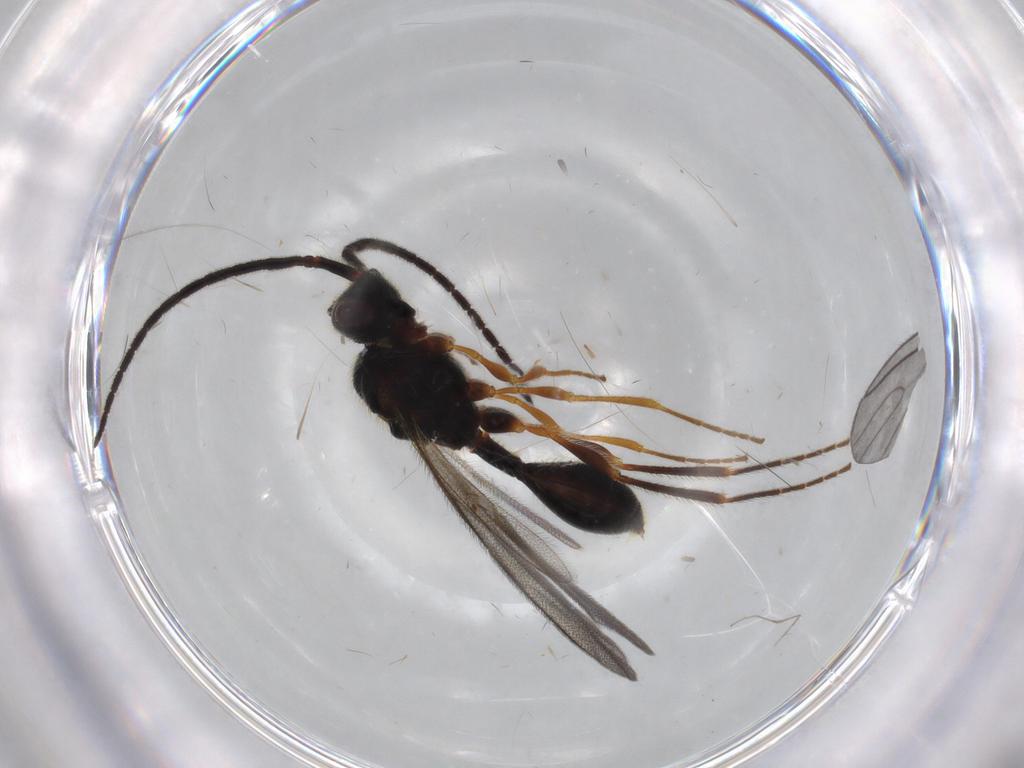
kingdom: Animalia
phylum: Arthropoda
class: Insecta
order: Hymenoptera
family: Diapriidae
